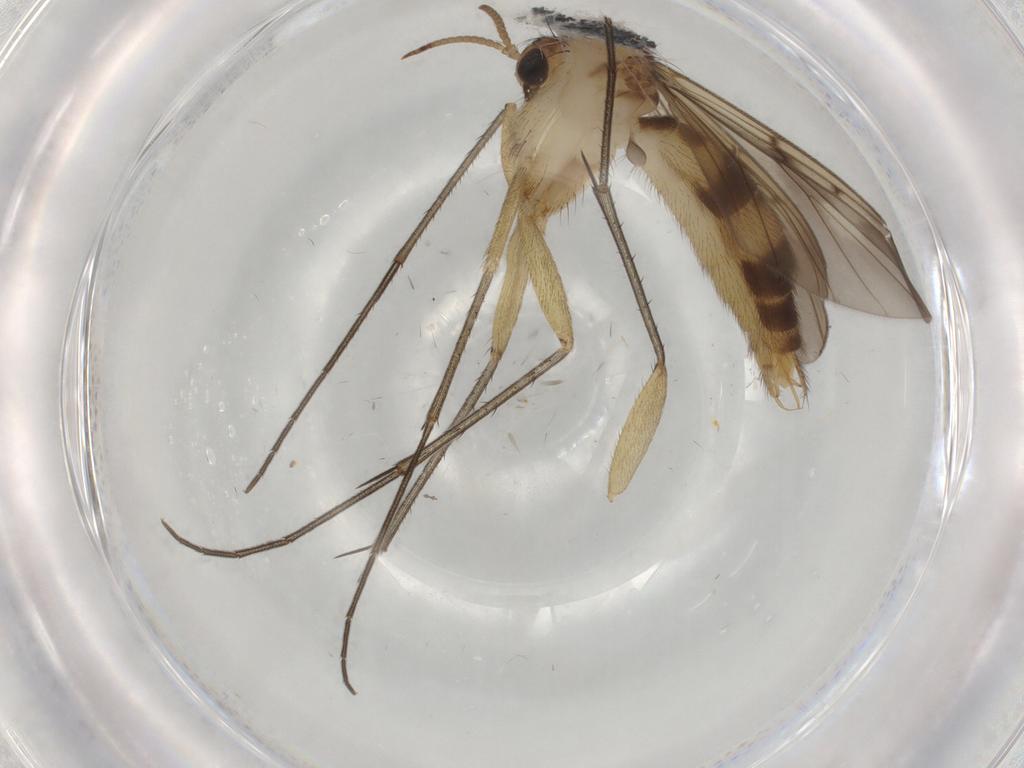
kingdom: Animalia
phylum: Arthropoda
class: Insecta
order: Diptera
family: Mycetophilidae
